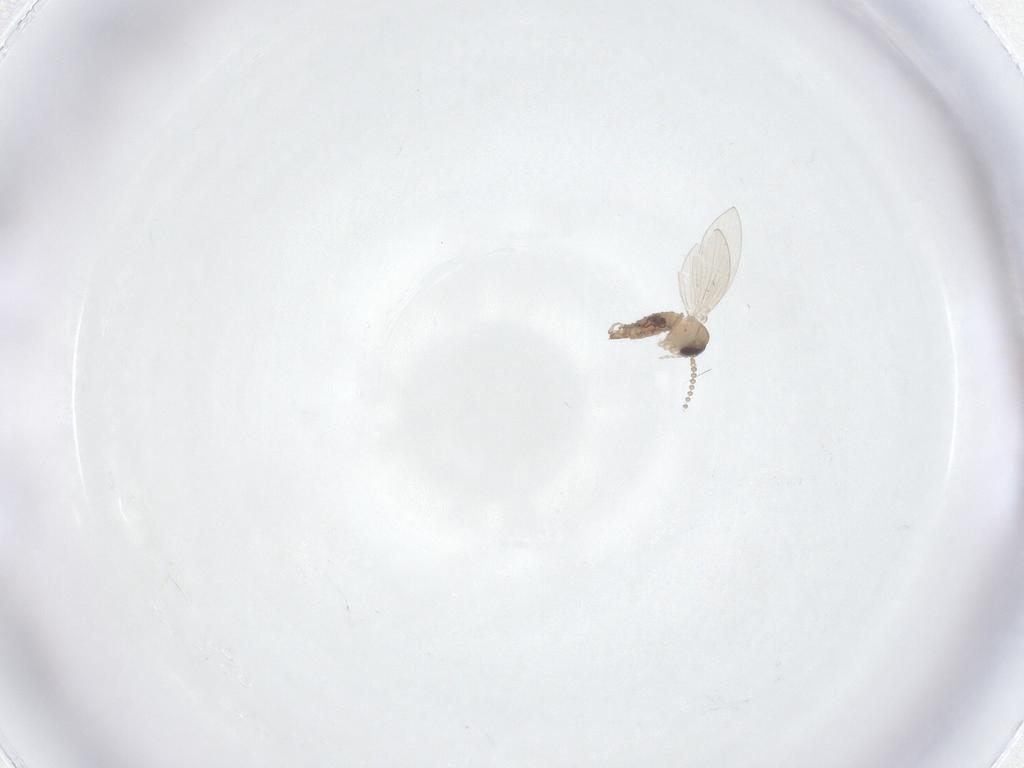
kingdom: Animalia
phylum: Arthropoda
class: Insecta
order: Diptera
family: Psychodidae
